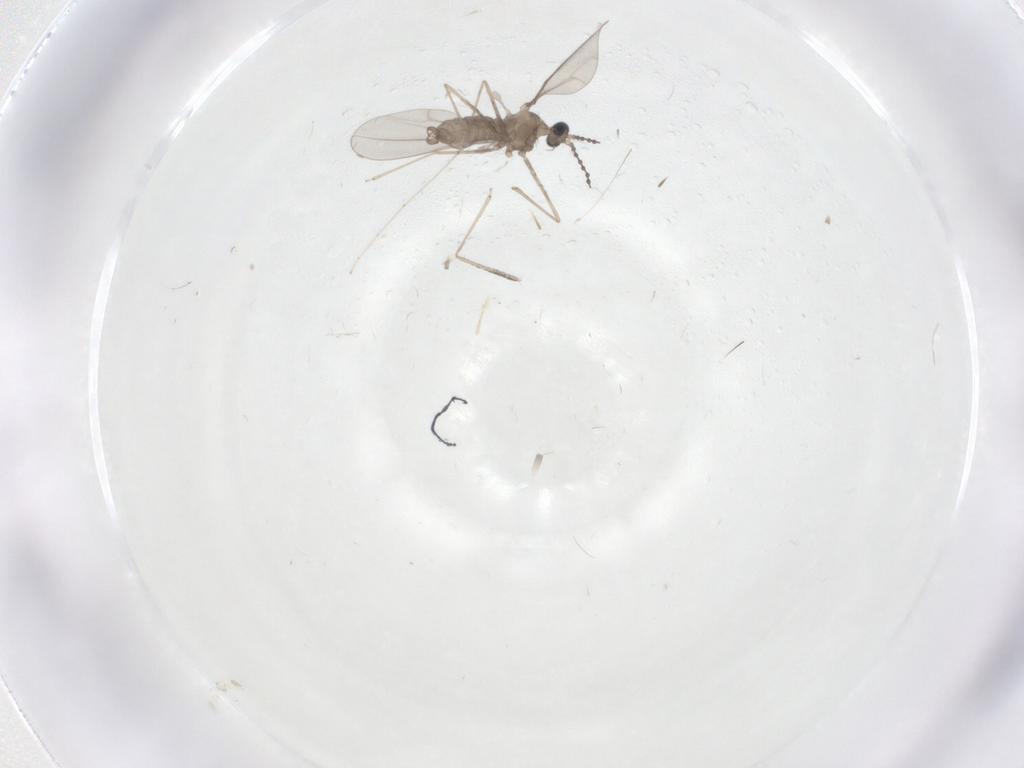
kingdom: Animalia
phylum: Arthropoda
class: Insecta
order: Diptera
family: Cecidomyiidae
